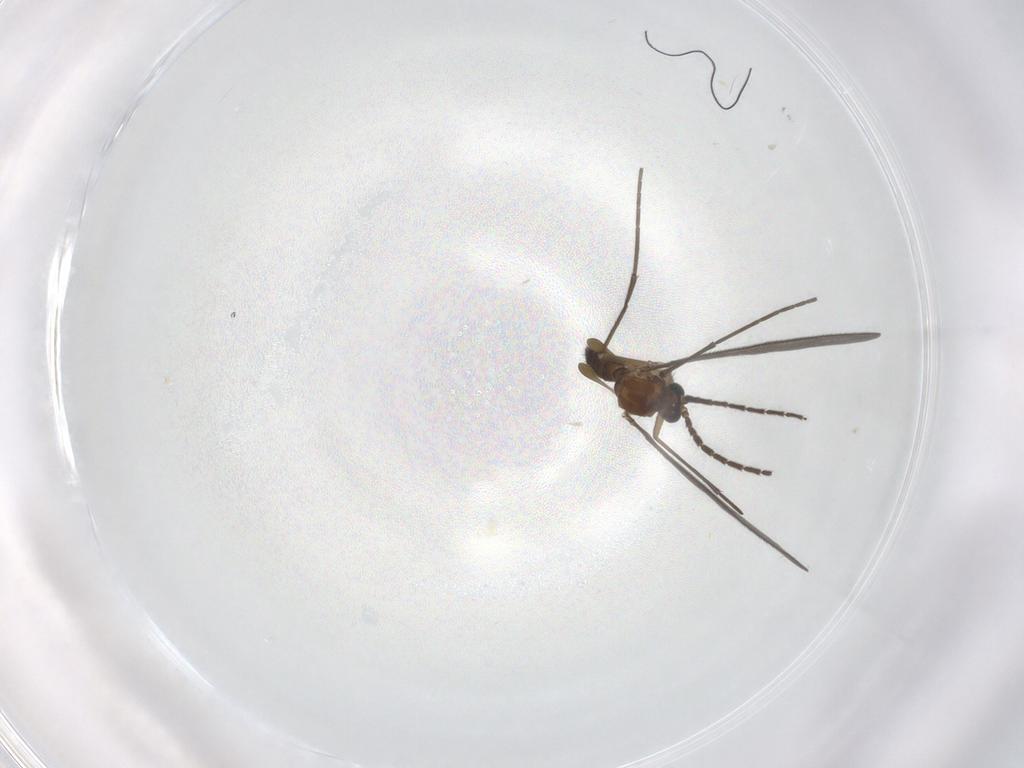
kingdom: Animalia
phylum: Arthropoda
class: Insecta
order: Diptera
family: Sciaridae
